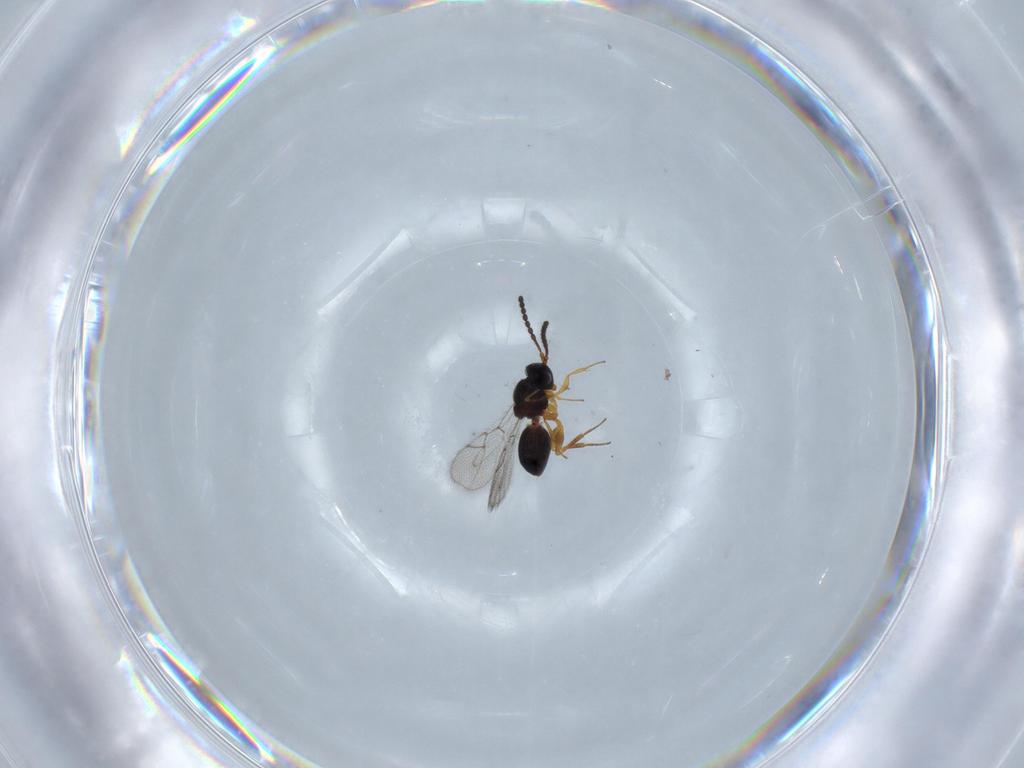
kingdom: Animalia
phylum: Arthropoda
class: Insecta
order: Hymenoptera
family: Figitidae
